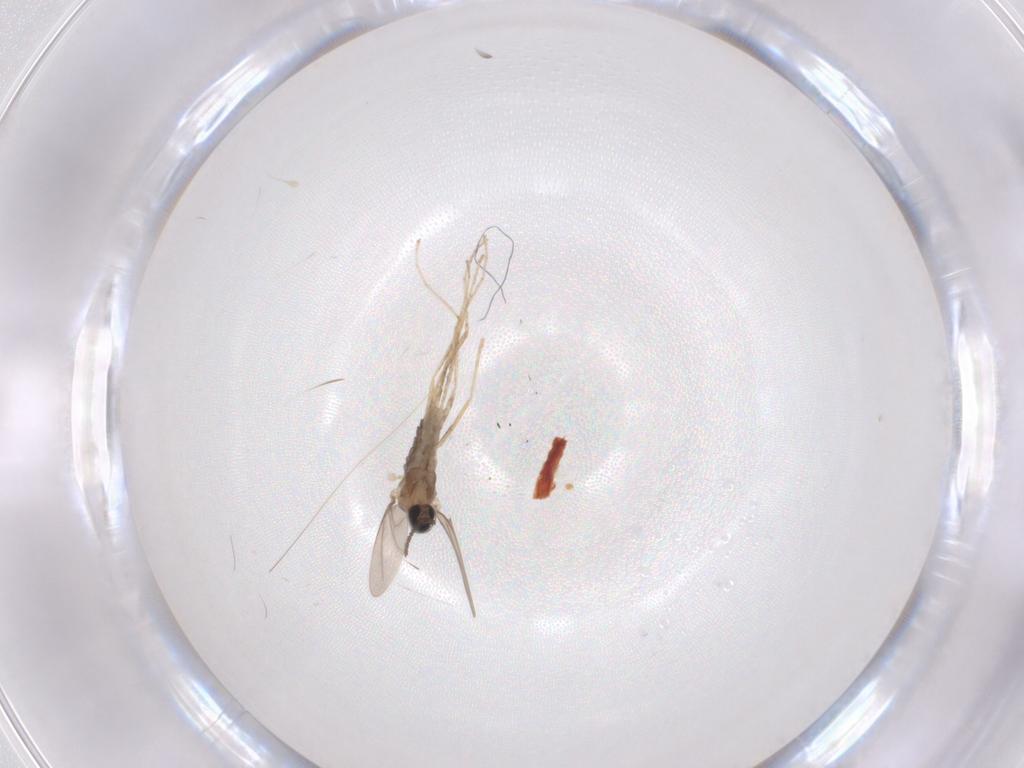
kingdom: Animalia
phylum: Arthropoda
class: Insecta
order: Diptera
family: Cecidomyiidae
